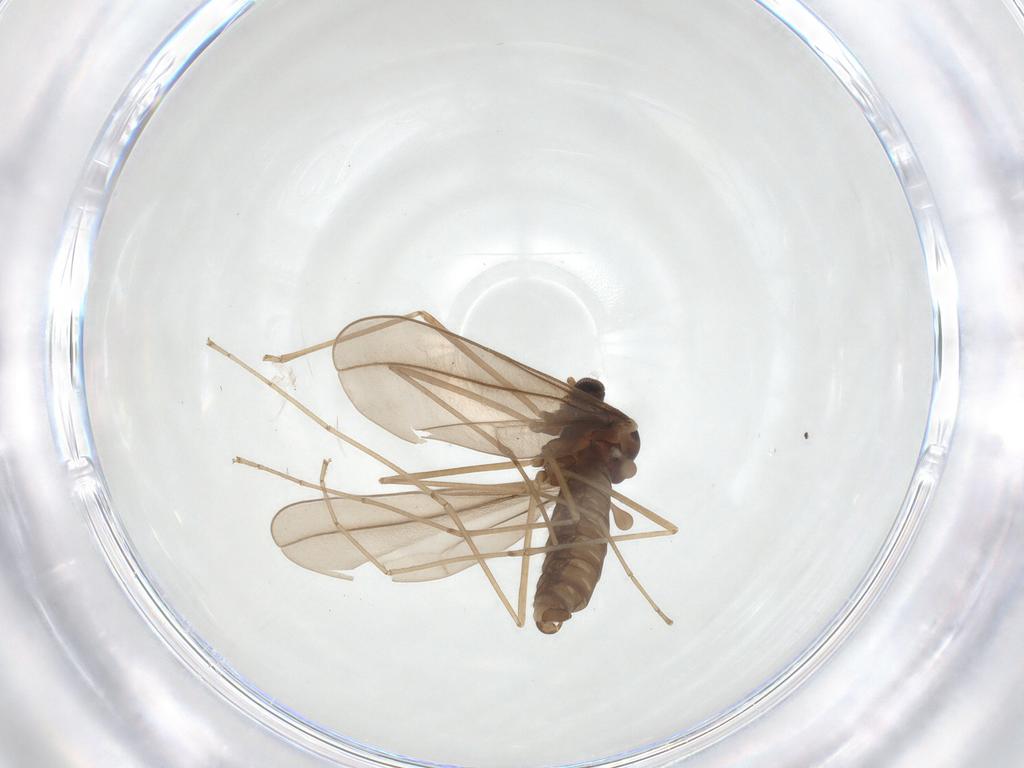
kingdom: Animalia
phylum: Arthropoda
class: Insecta
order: Diptera
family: Cecidomyiidae
